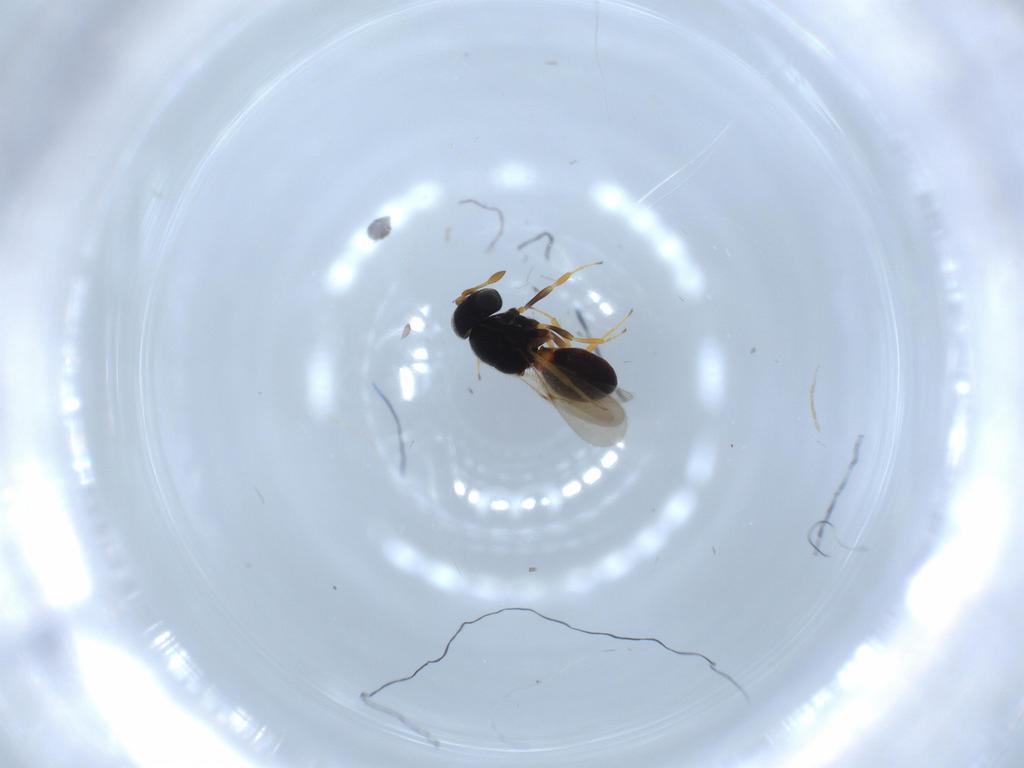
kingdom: Animalia
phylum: Arthropoda
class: Insecta
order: Hymenoptera
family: Scelionidae
